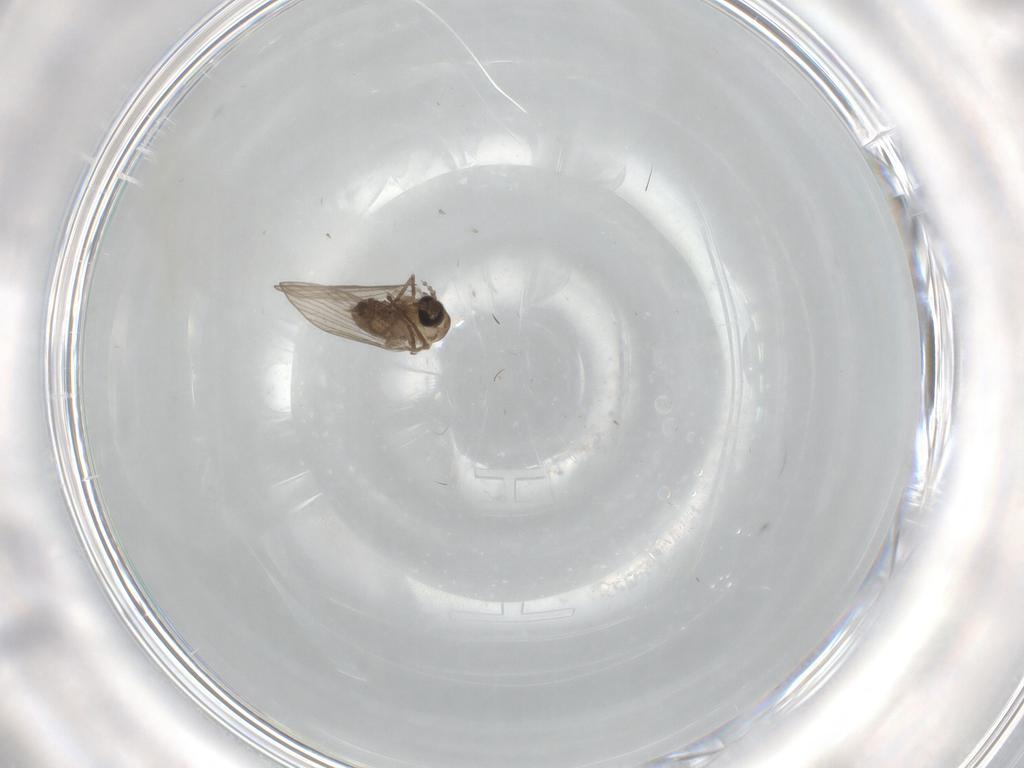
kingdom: Animalia
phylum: Arthropoda
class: Insecta
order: Diptera
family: Psychodidae
